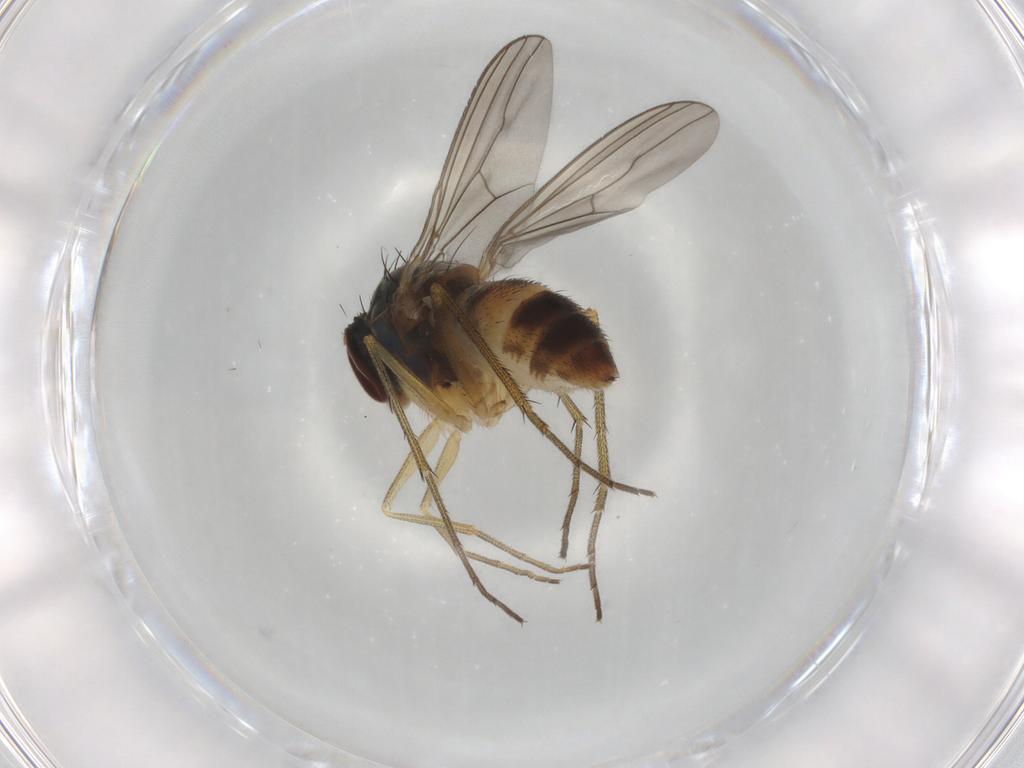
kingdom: Animalia
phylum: Arthropoda
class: Insecta
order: Diptera
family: Dolichopodidae
